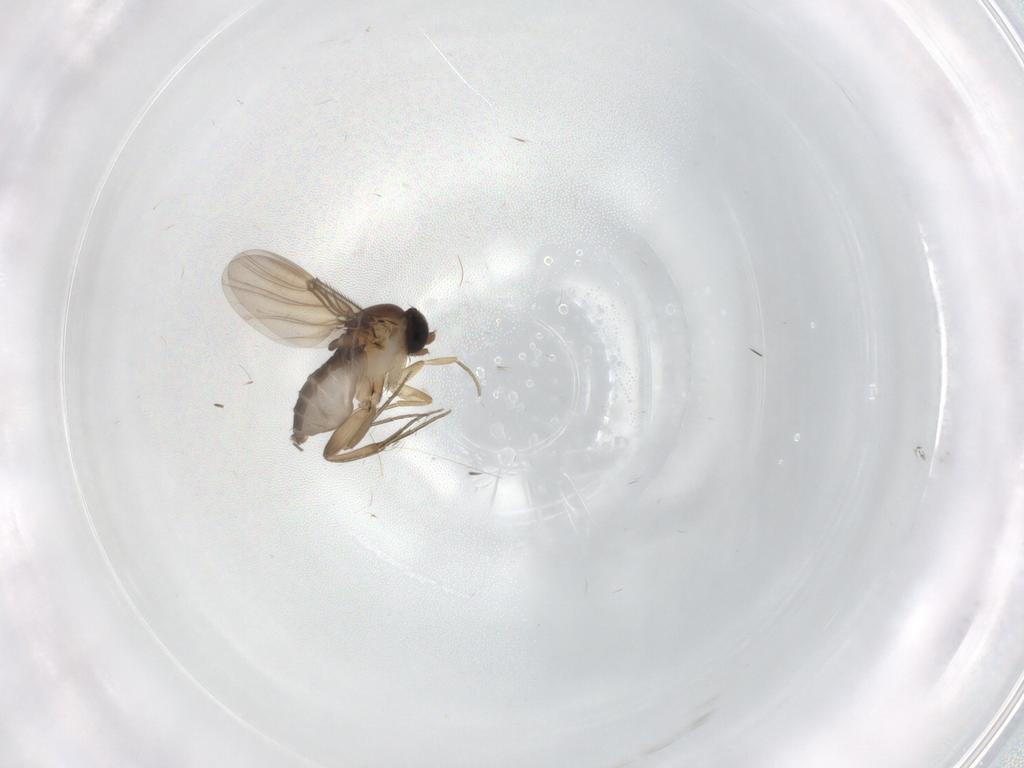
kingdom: Animalia
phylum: Arthropoda
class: Insecta
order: Diptera
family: Phoridae
